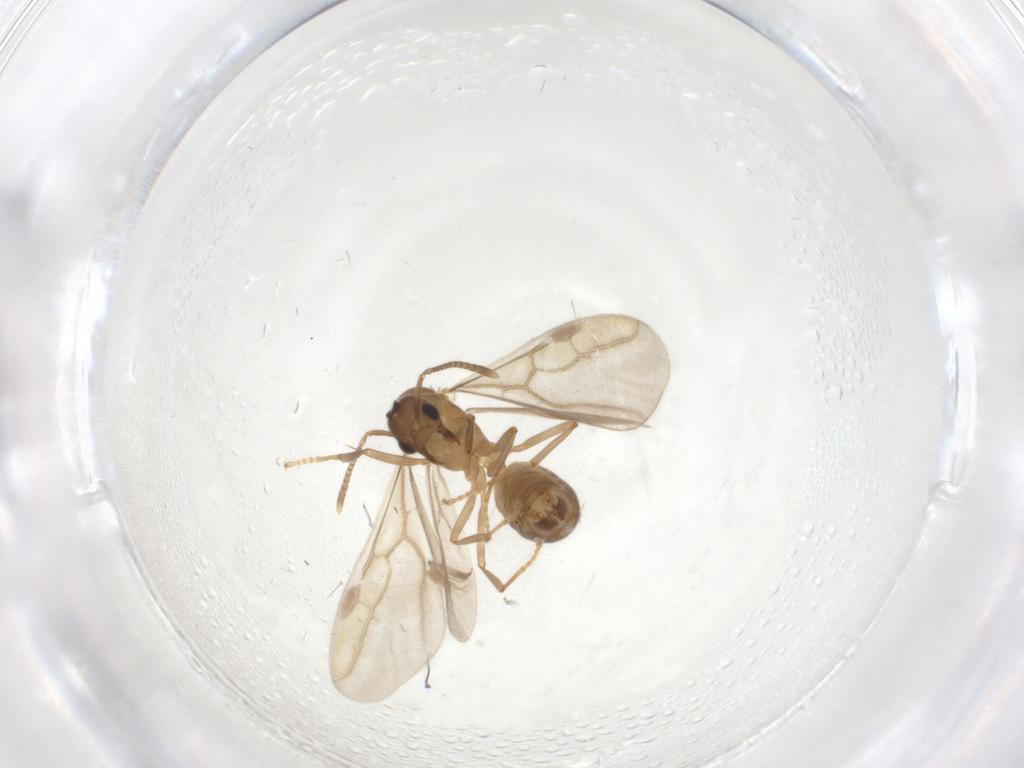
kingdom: Animalia
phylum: Arthropoda
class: Insecta
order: Hymenoptera
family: Formicidae
